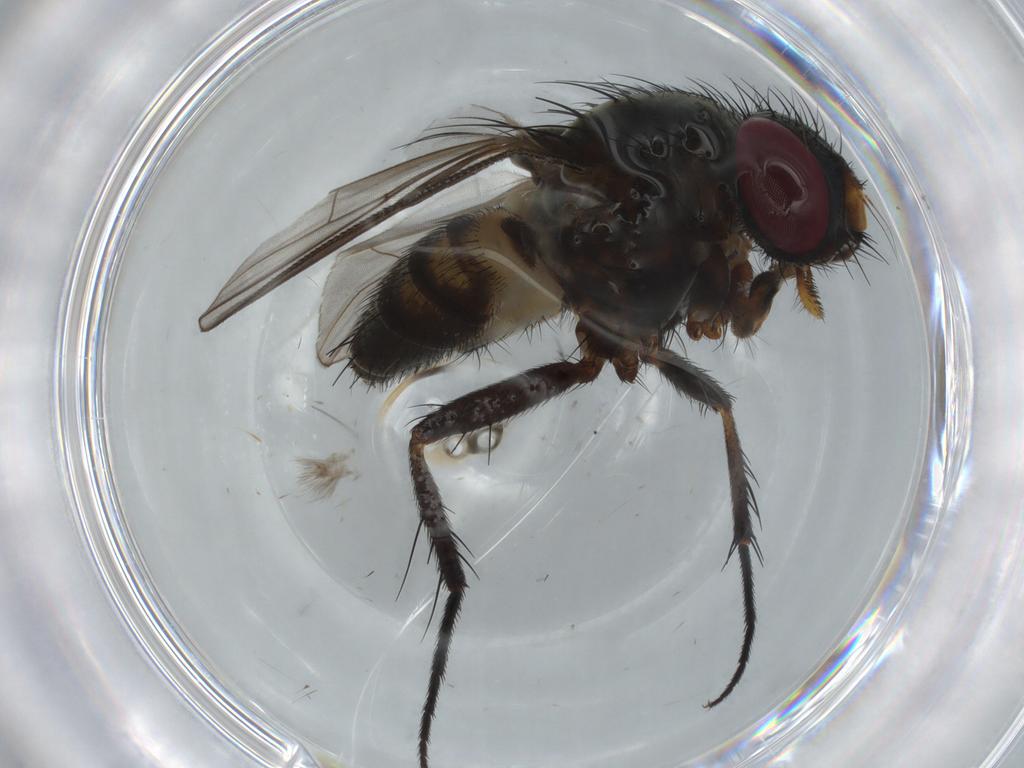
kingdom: Animalia
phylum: Arthropoda
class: Insecta
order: Diptera
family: Fannia
